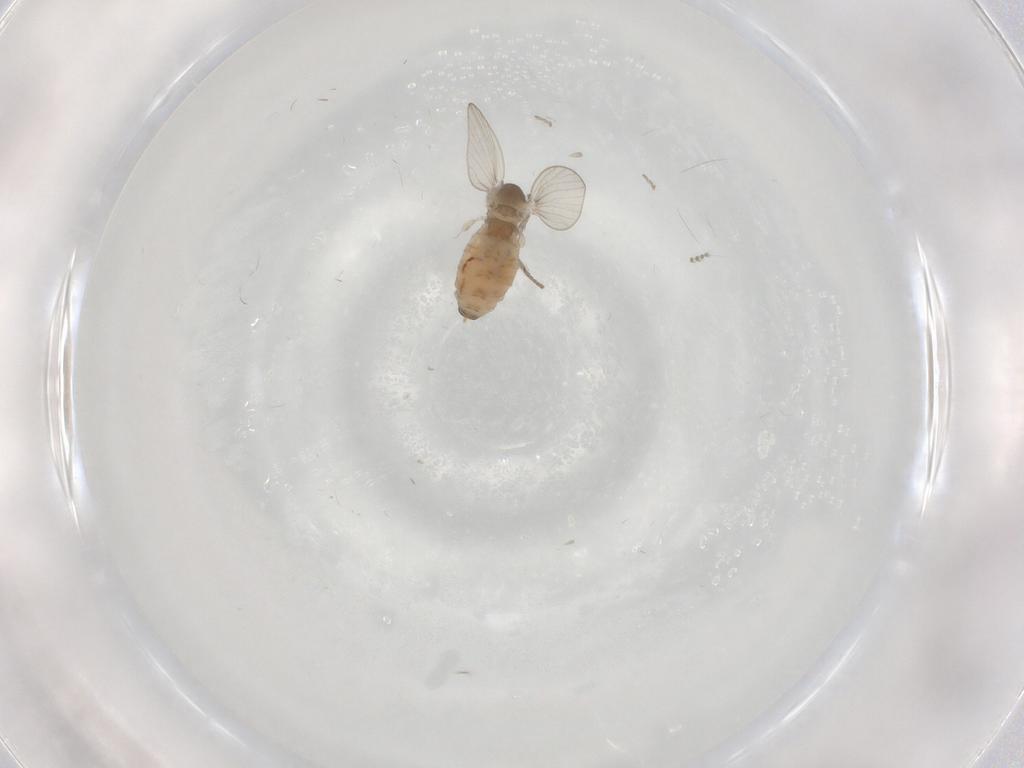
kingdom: Animalia
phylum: Arthropoda
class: Insecta
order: Diptera
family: Psychodidae
